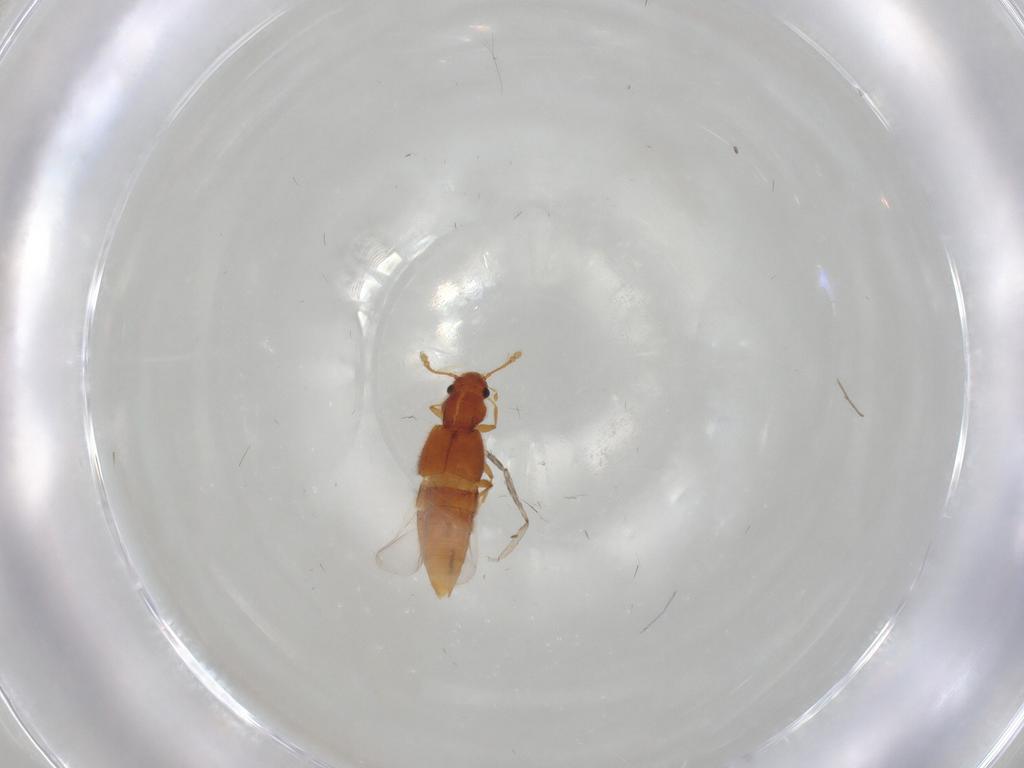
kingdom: Animalia
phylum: Arthropoda
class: Insecta
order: Coleoptera
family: Staphylinidae
